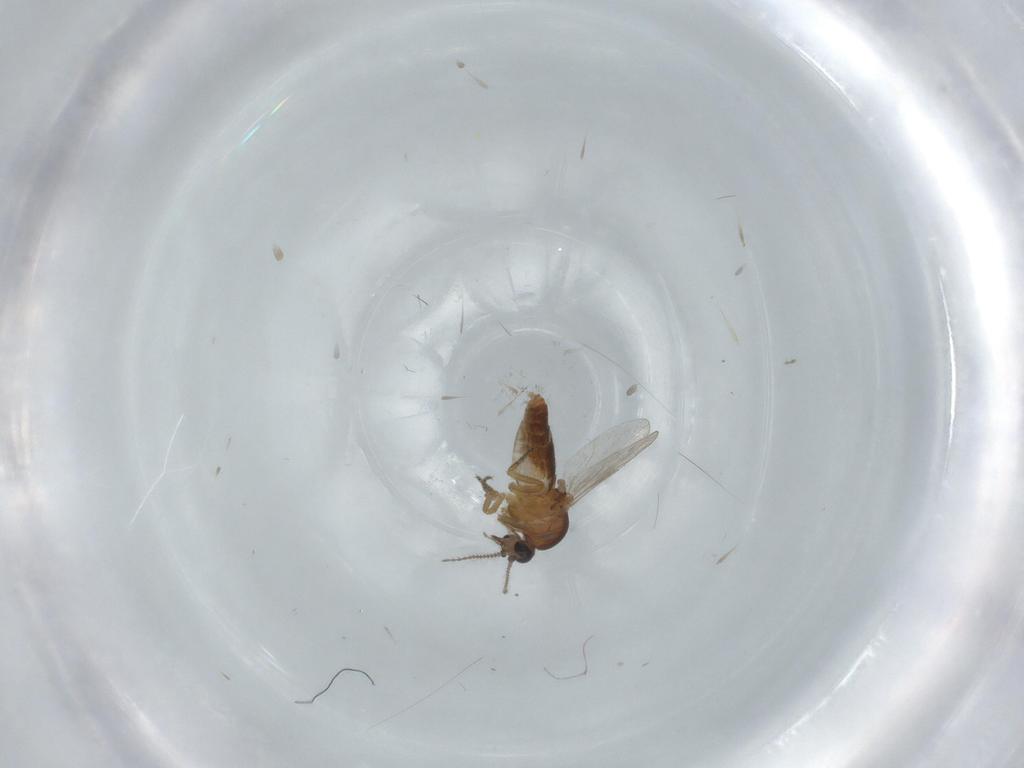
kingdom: Animalia
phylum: Arthropoda
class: Insecta
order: Diptera
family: Ceratopogonidae
